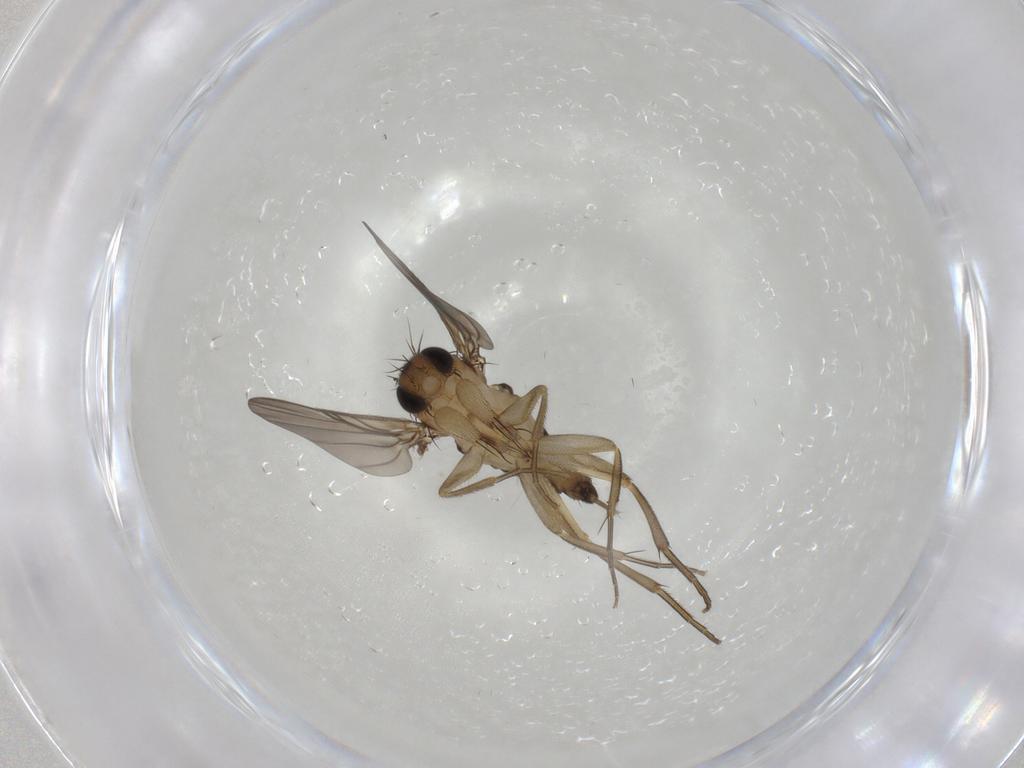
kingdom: Animalia
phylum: Arthropoda
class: Insecta
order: Diptera
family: Phoridae
